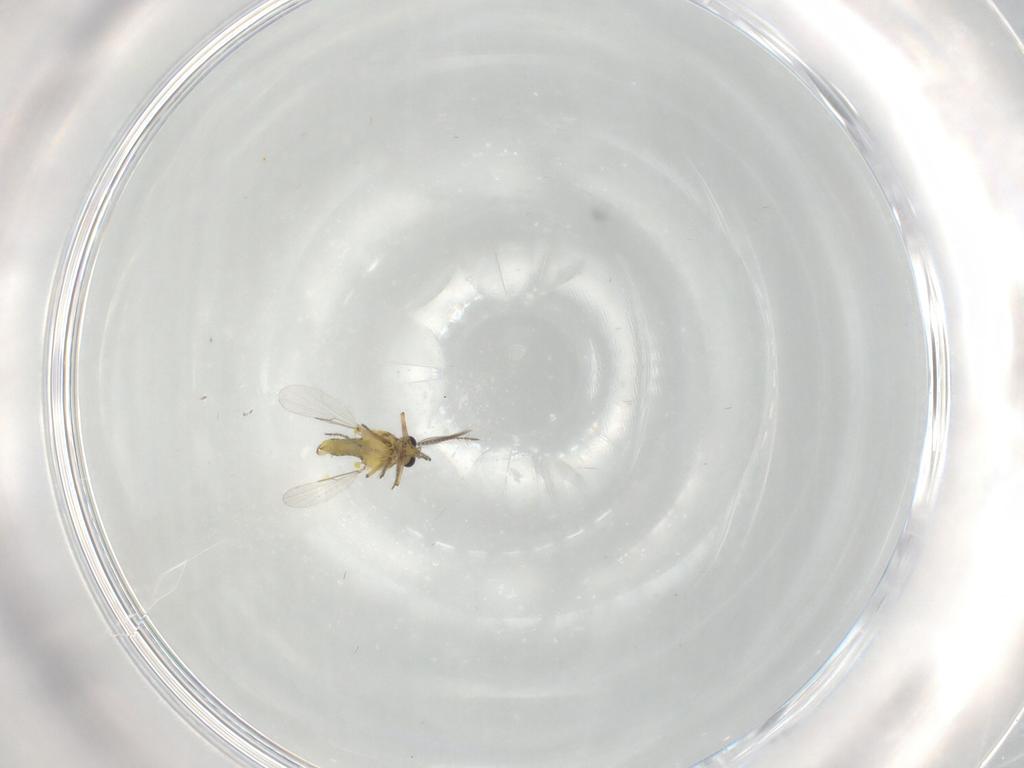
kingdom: Animalia
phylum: Arthropoda
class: Insecta
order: Diptera
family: Ceratopogonidae
